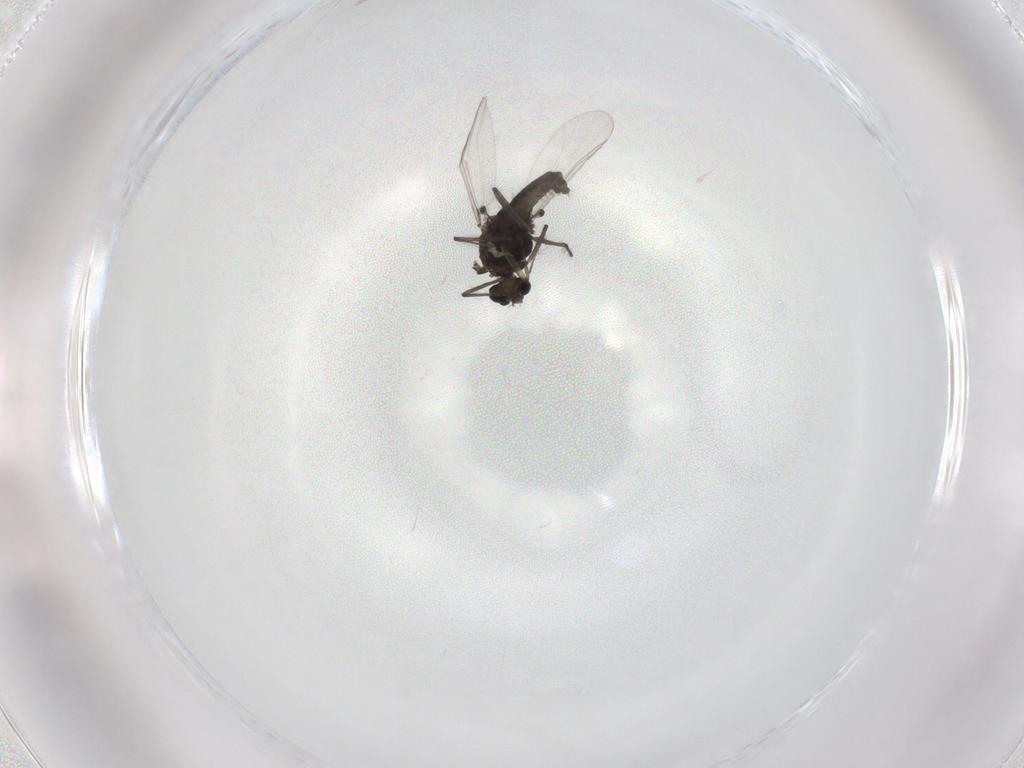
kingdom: Animalia
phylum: Arthropoda
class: Insecta
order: Diptera
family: Chironomidae
